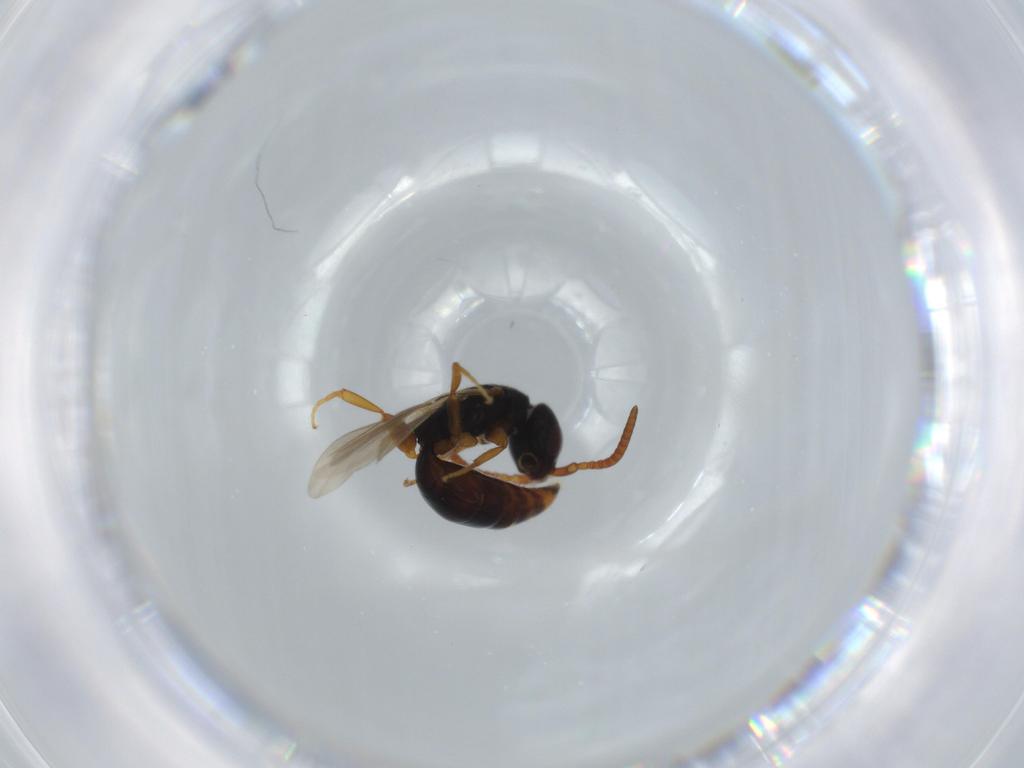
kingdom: Animalia
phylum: Arthropoda
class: Insecta
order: Hymenoptera
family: Bethylidae
